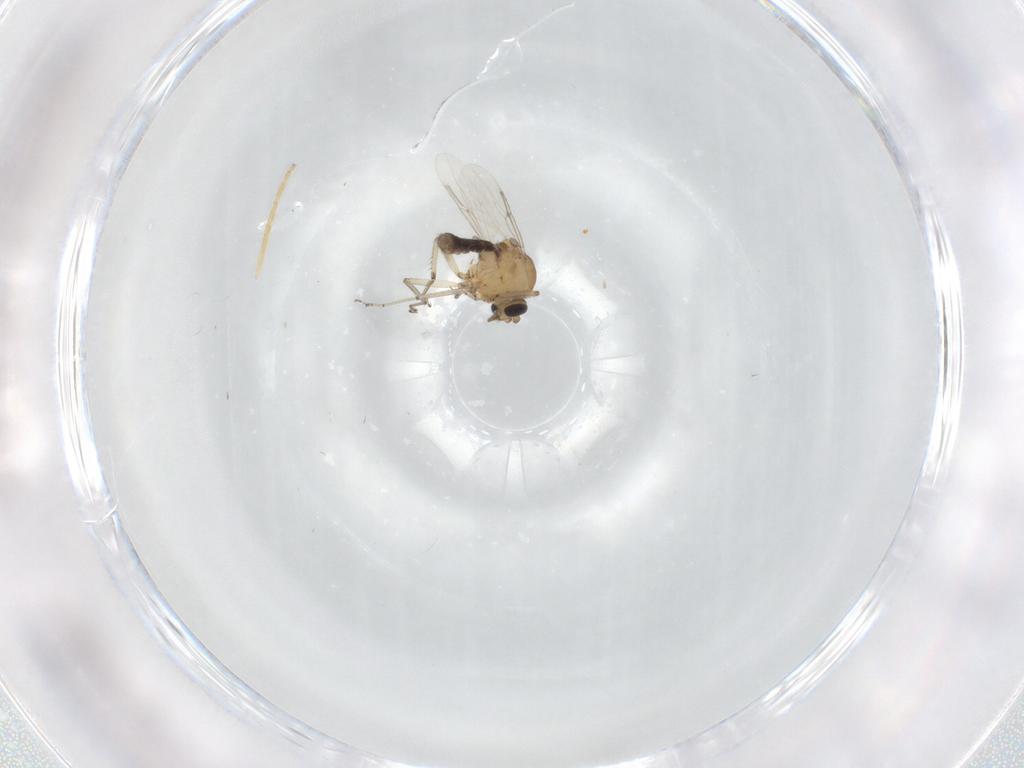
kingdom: Animalia
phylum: Arthropoda
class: Insecta
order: Diptera
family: Ceratopogonidae
